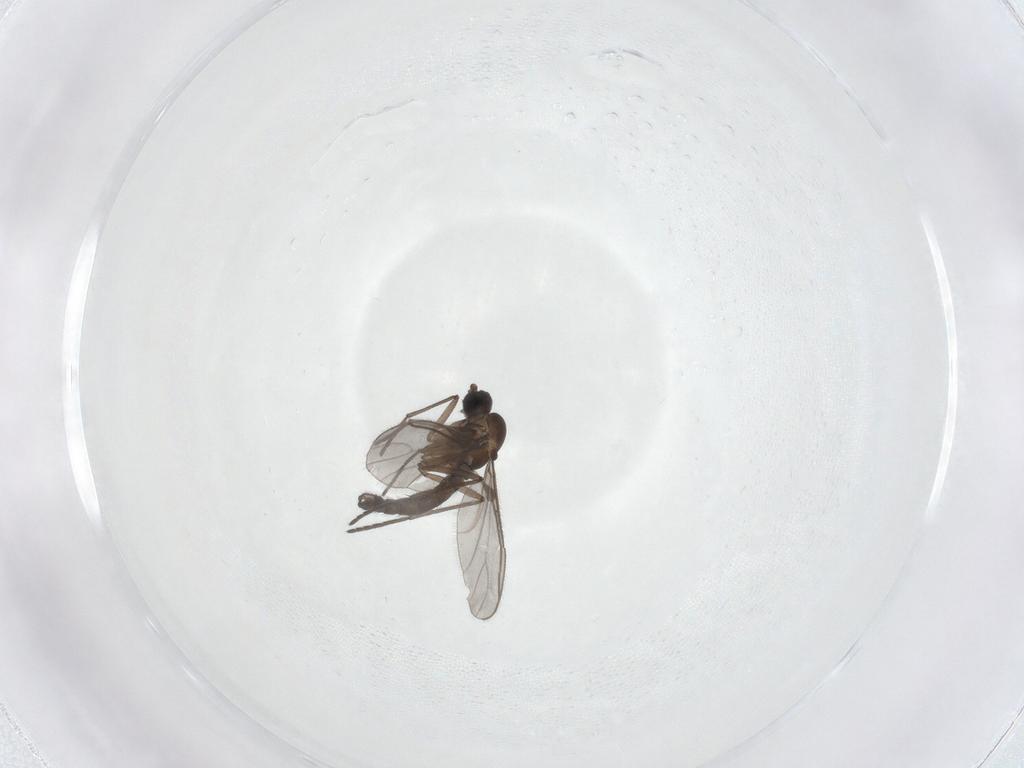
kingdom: Animalia
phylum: Arthropoda
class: Insecta
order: Diptera
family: Sciaridae
